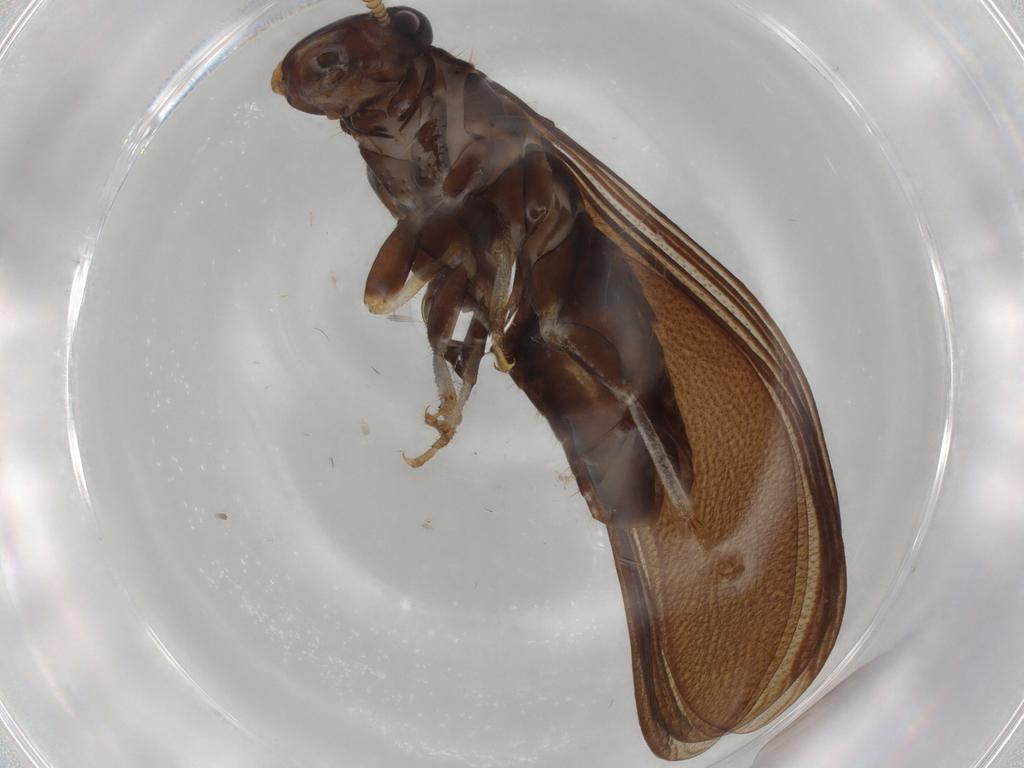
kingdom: Animalia
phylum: Arthropoda
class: Insecta
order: Blattodea
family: Kalotermitidae
